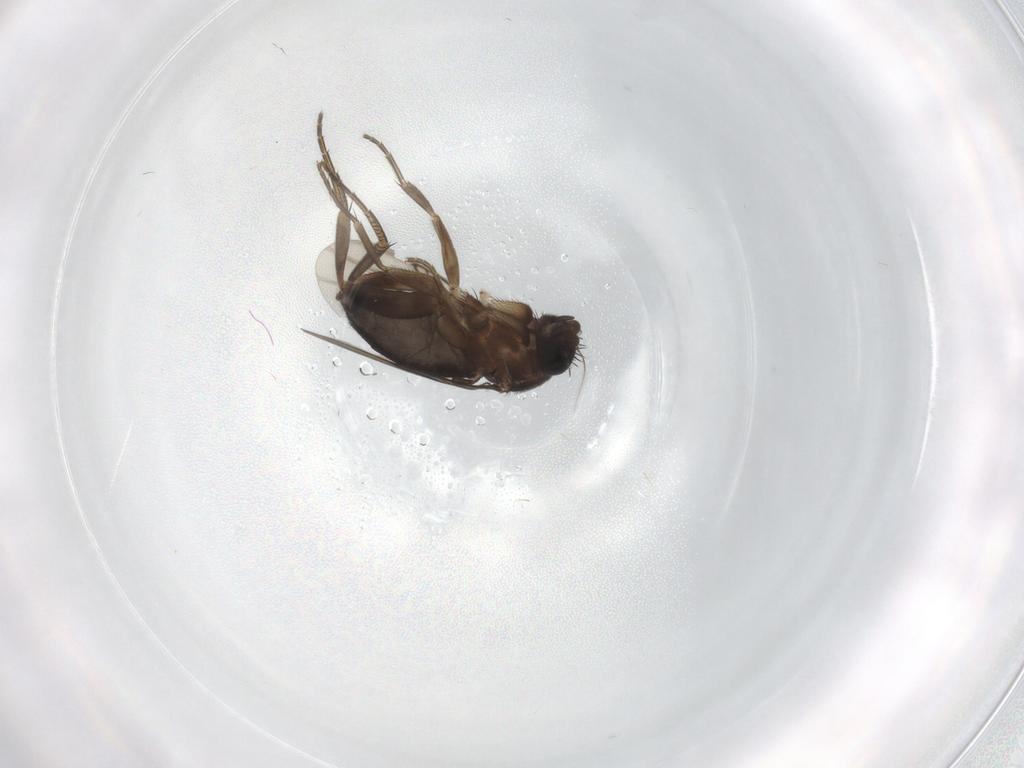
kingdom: Animalia
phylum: Arthropoda
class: Insecta
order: Diptera
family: Phoridae
